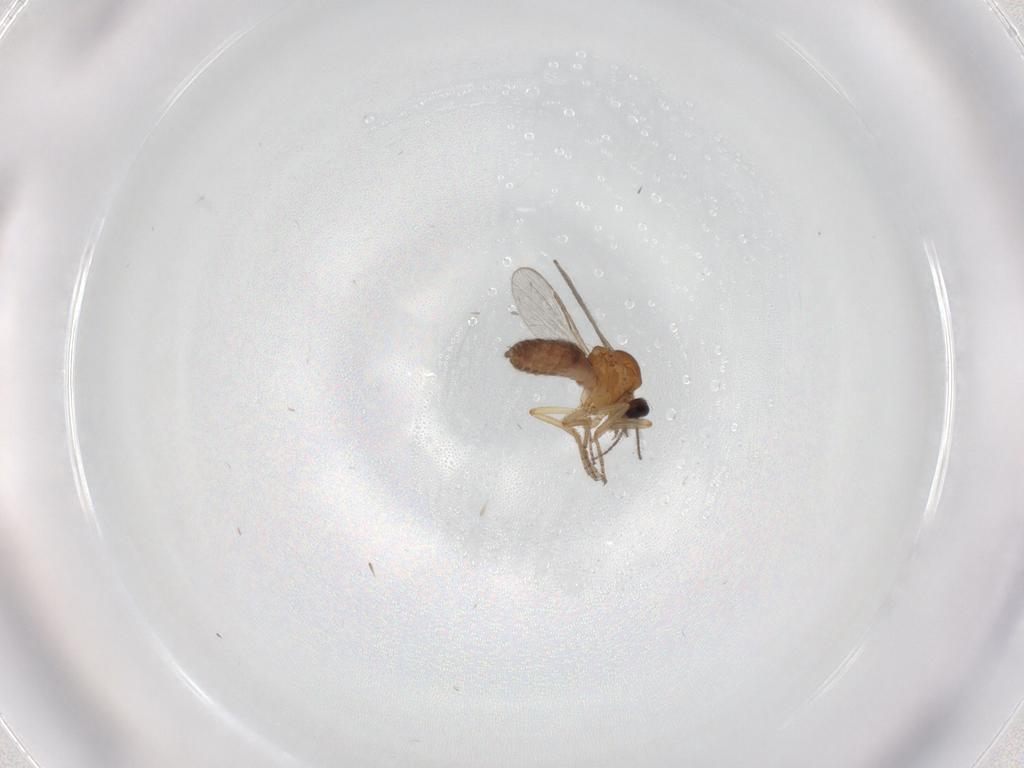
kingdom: Animalia
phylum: Arthropoda
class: Insecta
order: Diptera
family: Ceratopogonidae
